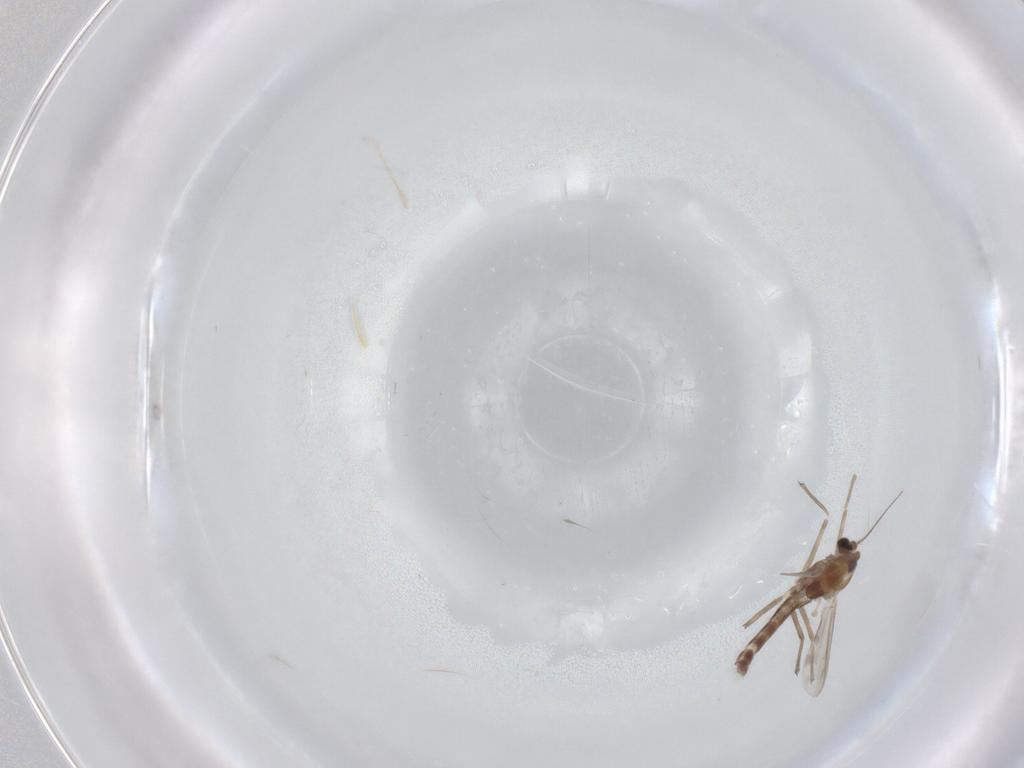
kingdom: Animalia
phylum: Arthropoda
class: Insecta
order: Diptera
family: Chironomidae
